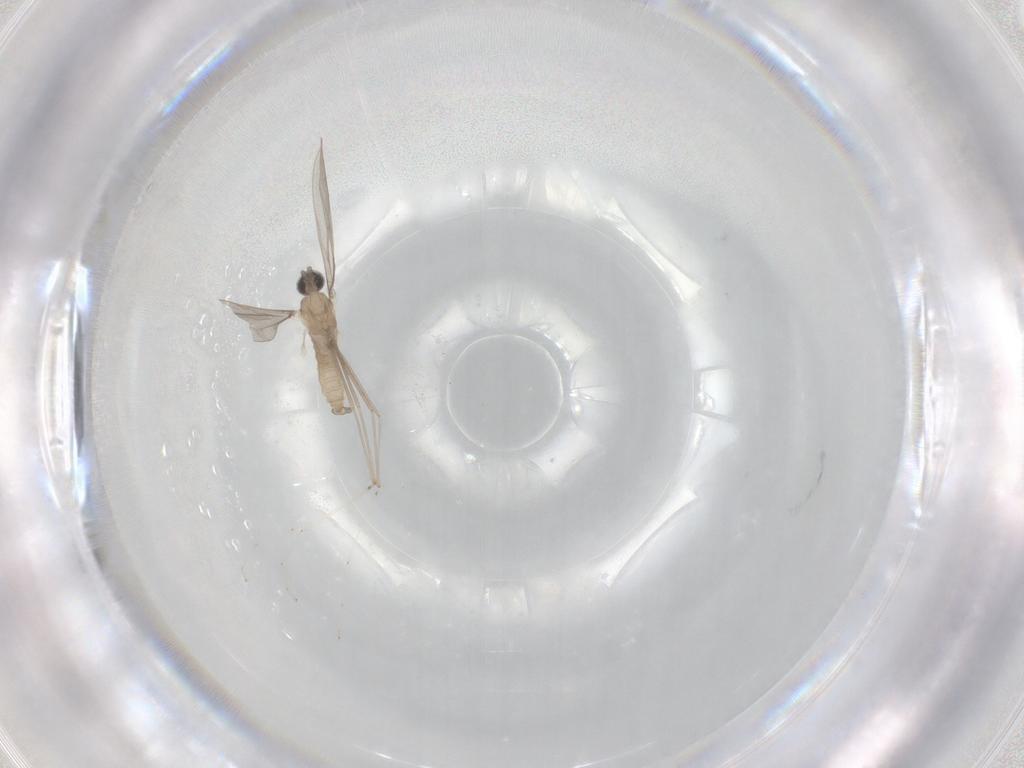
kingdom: Animalia
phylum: Arthropoda
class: Insecta
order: Diptera
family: Cecidomyiidae
